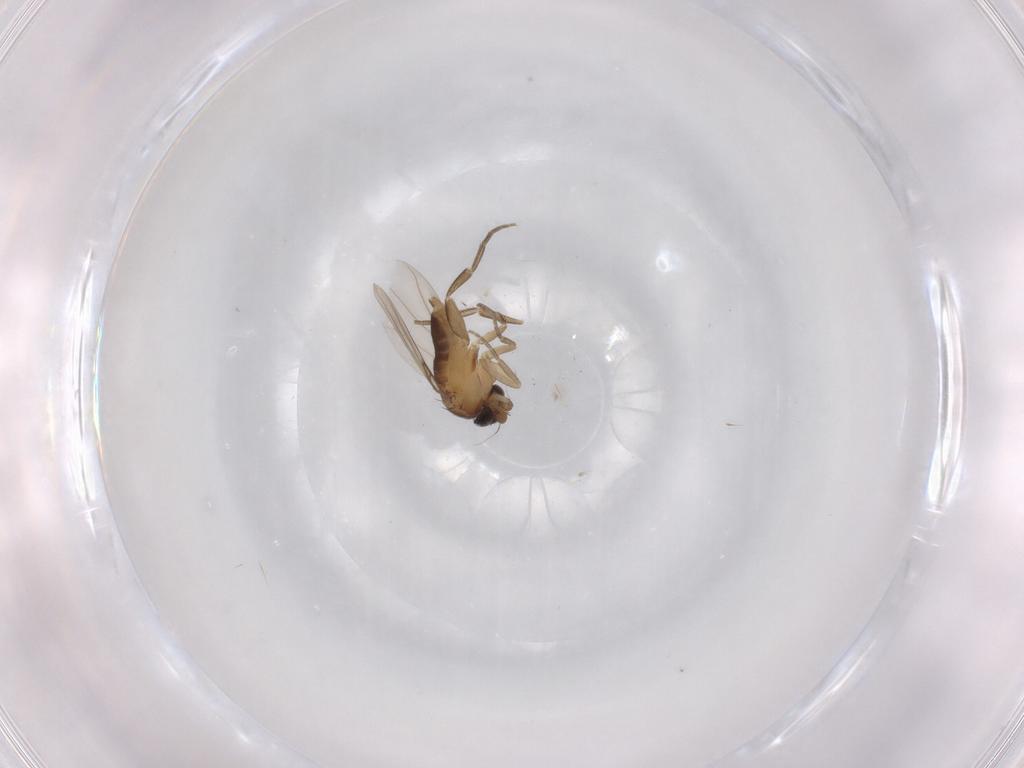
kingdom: Animalia
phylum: Arthropoda
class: Insecta
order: Diptera
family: Phoridae
